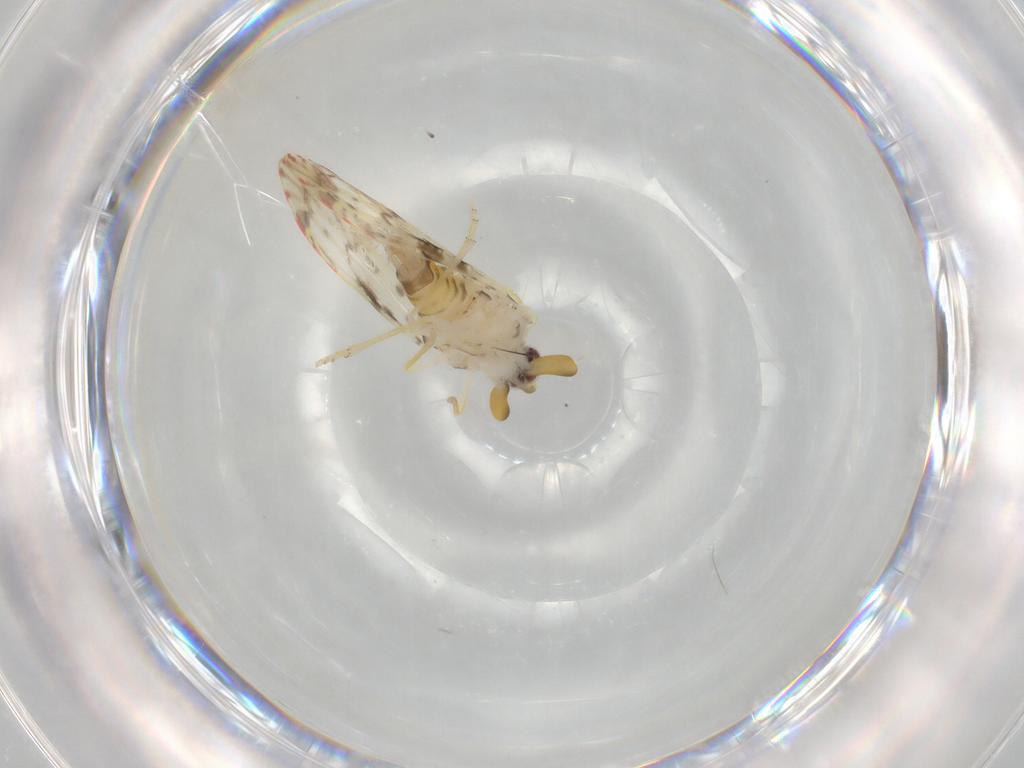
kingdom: Animalia
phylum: Arthropoda
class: Insecta
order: Hemiptera
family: Derbidae
